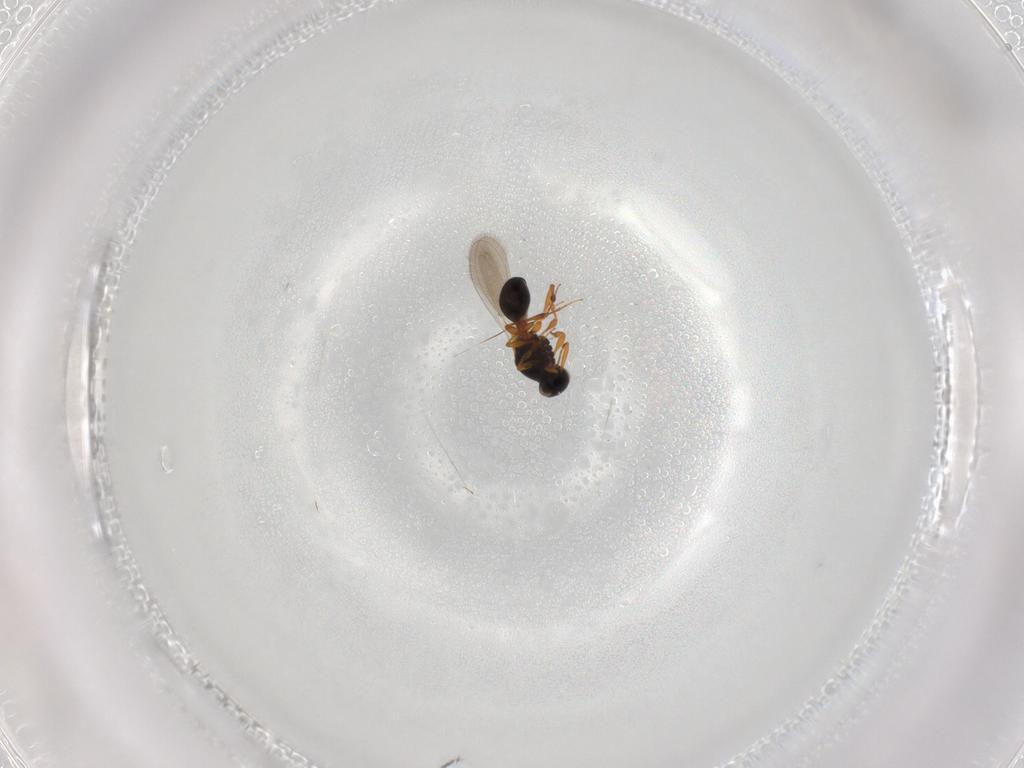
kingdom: Animalia
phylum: Arthropoda
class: Insecta
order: Hymenoptera
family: Platygastridae
